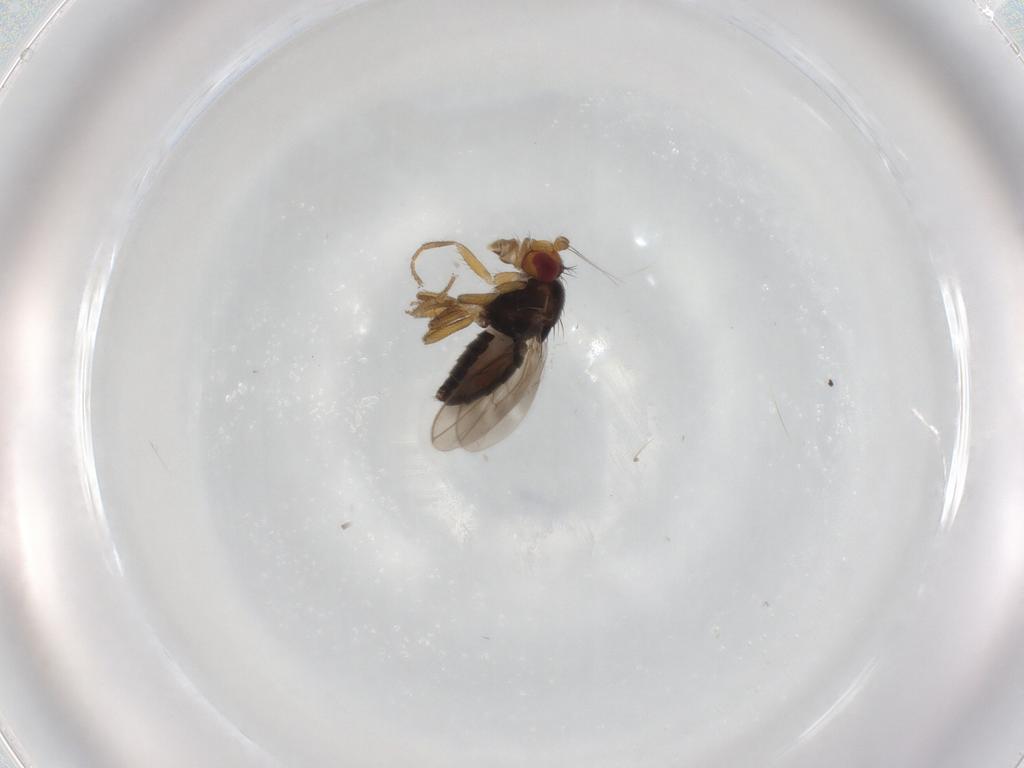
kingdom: Animalia
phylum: Arthropoda
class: Insecta
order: Diptera
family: Sphaeroceridae
